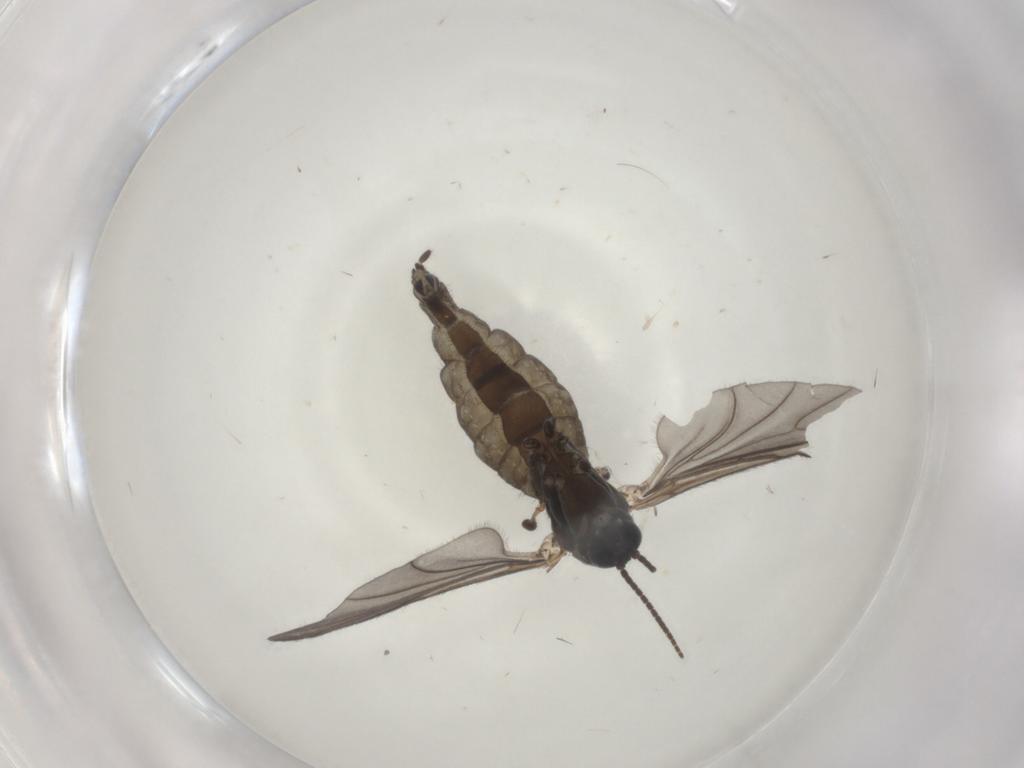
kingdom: Animalia
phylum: Arthropoda
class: Insecta
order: Diptera
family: Sciaridae
